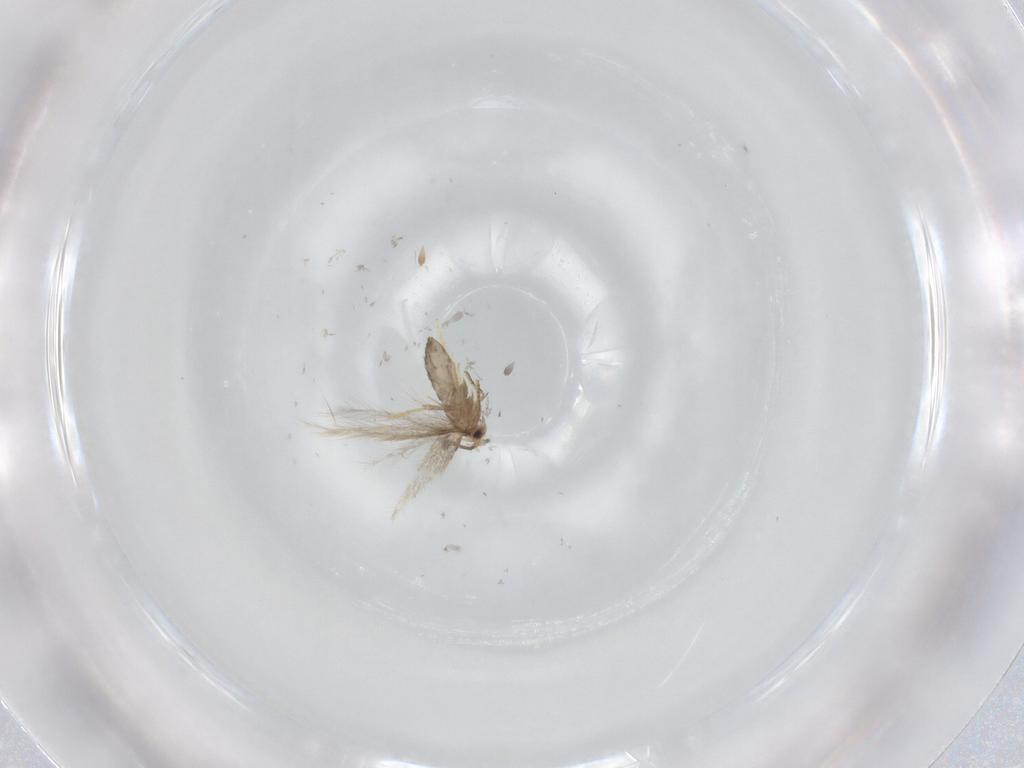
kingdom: Animalia
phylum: Arthropoda
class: Insecta
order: Lepidoptera
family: Nepticulidae
